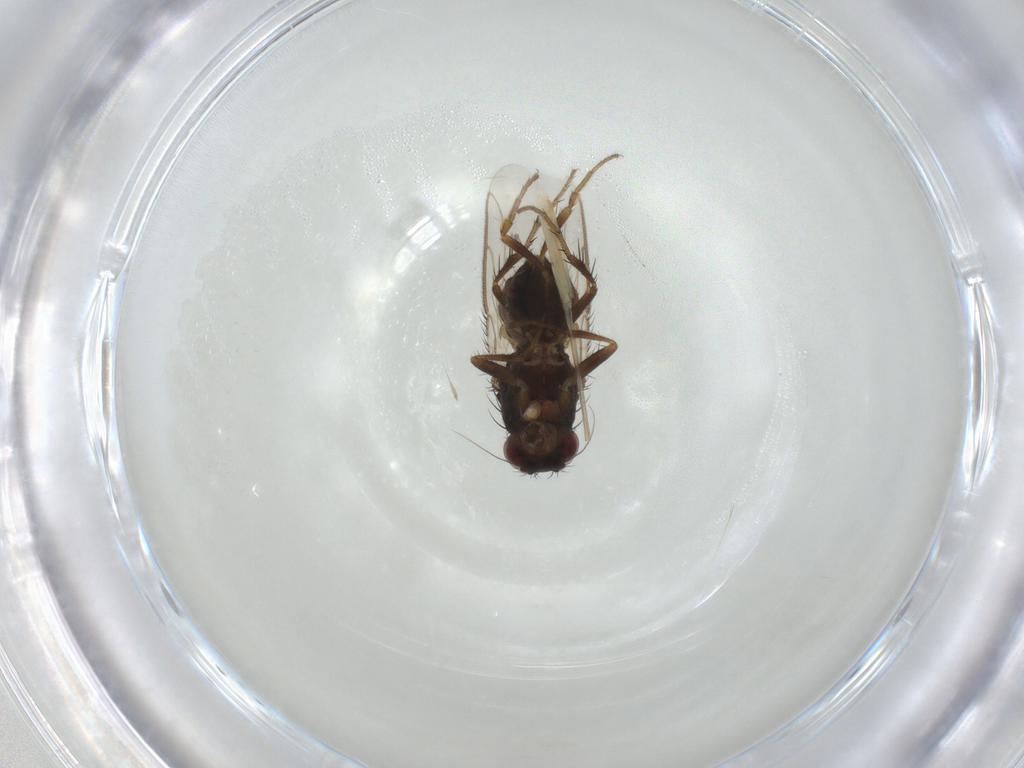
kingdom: Animalia
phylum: Arthropoda
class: Insecta
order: Diptera
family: Sphaeroceridae
